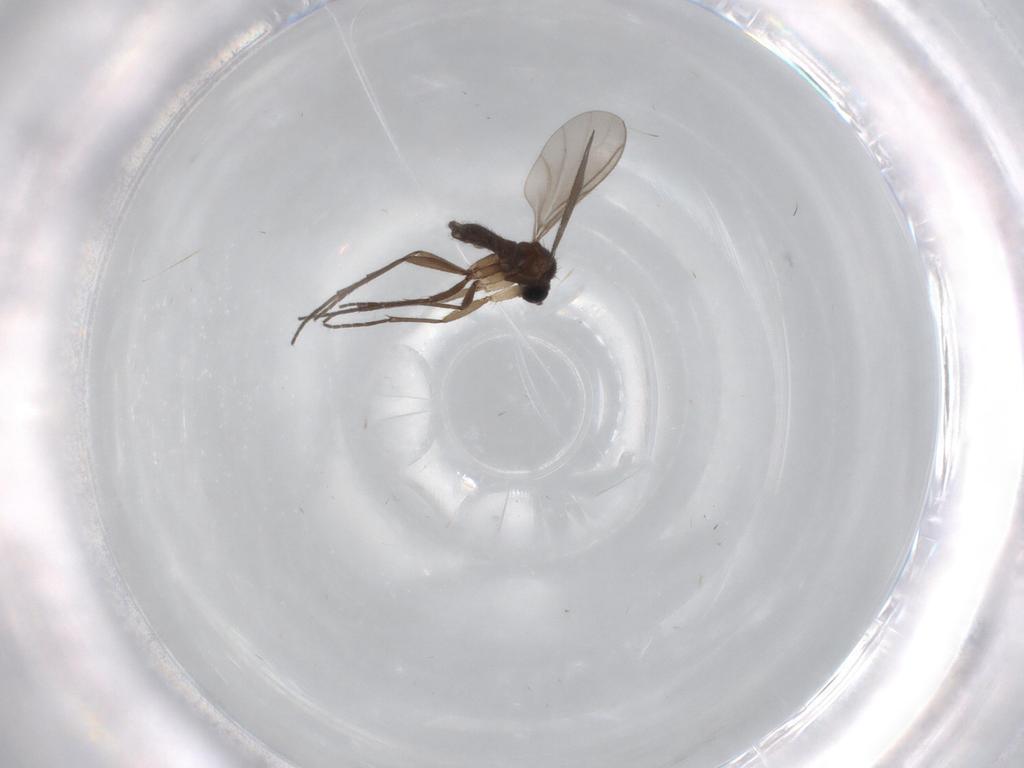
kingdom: Animalia
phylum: Arthropoda
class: Insecta
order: Diptera
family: Sciaridae
